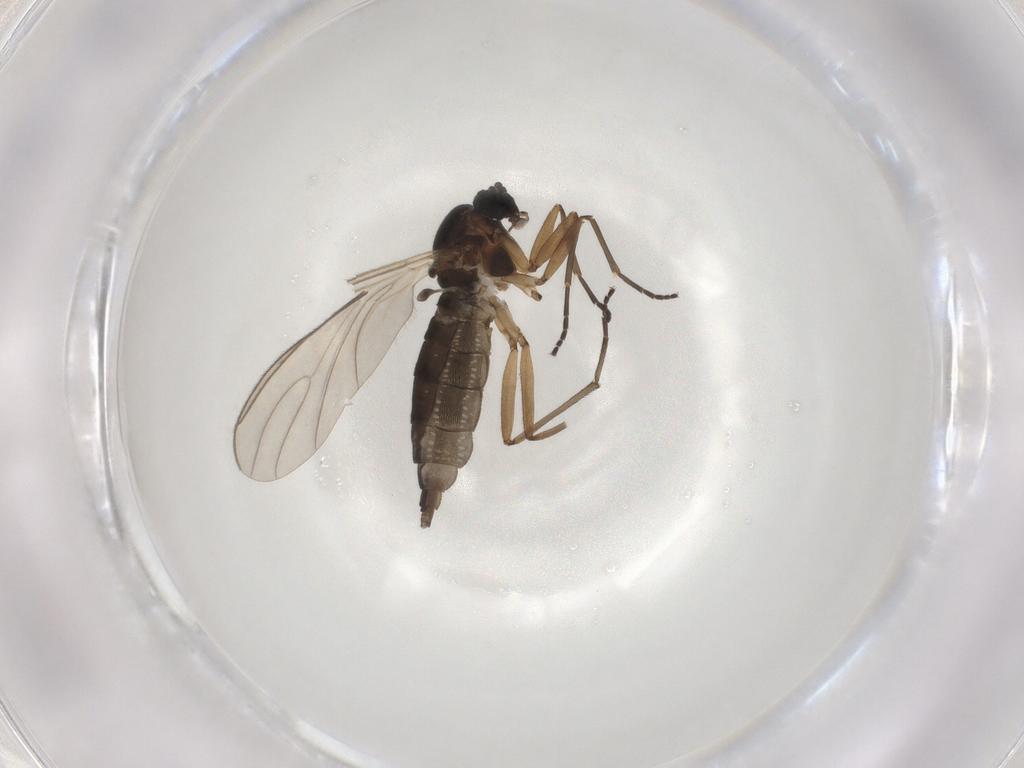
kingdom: Animalia
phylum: Arthropoda
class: Insecta
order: Diptera
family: Sciaridae
